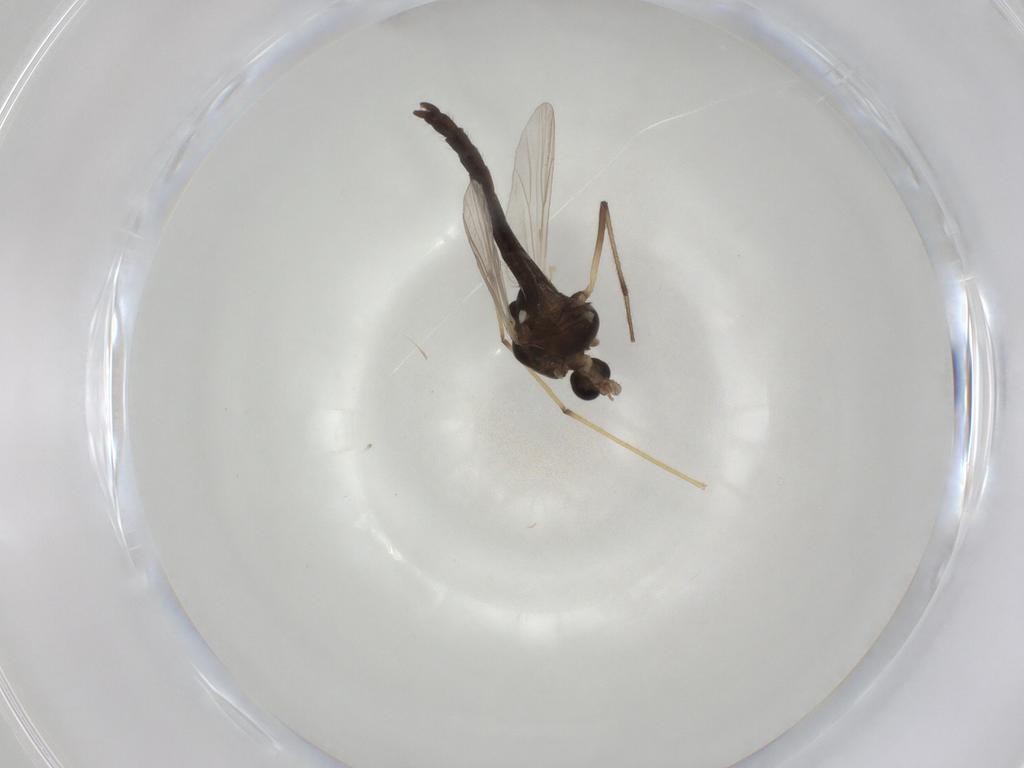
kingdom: Animalia
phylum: Arthropoda
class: Insecta
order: Diptera
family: Chironomidae
